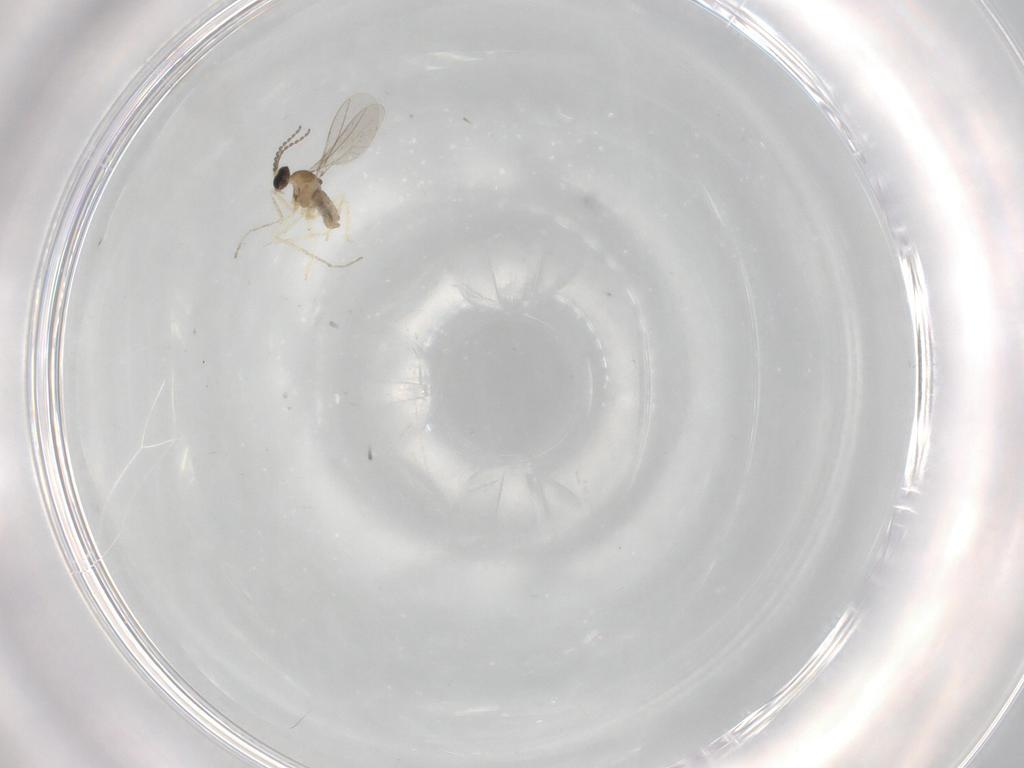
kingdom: Animalia
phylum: Arthropoda
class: Insecta
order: Diptera
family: Cecidomyiidae
